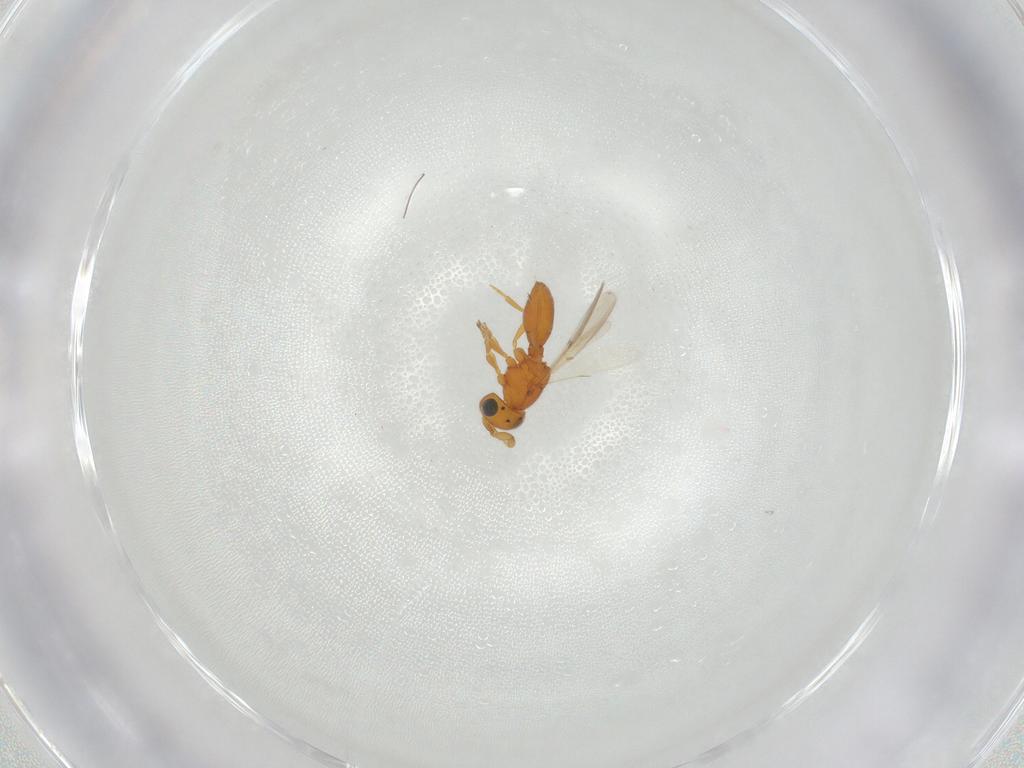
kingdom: Animalia
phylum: Arthropoda
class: Insecta
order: Hymenoptera
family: Scelionidae
